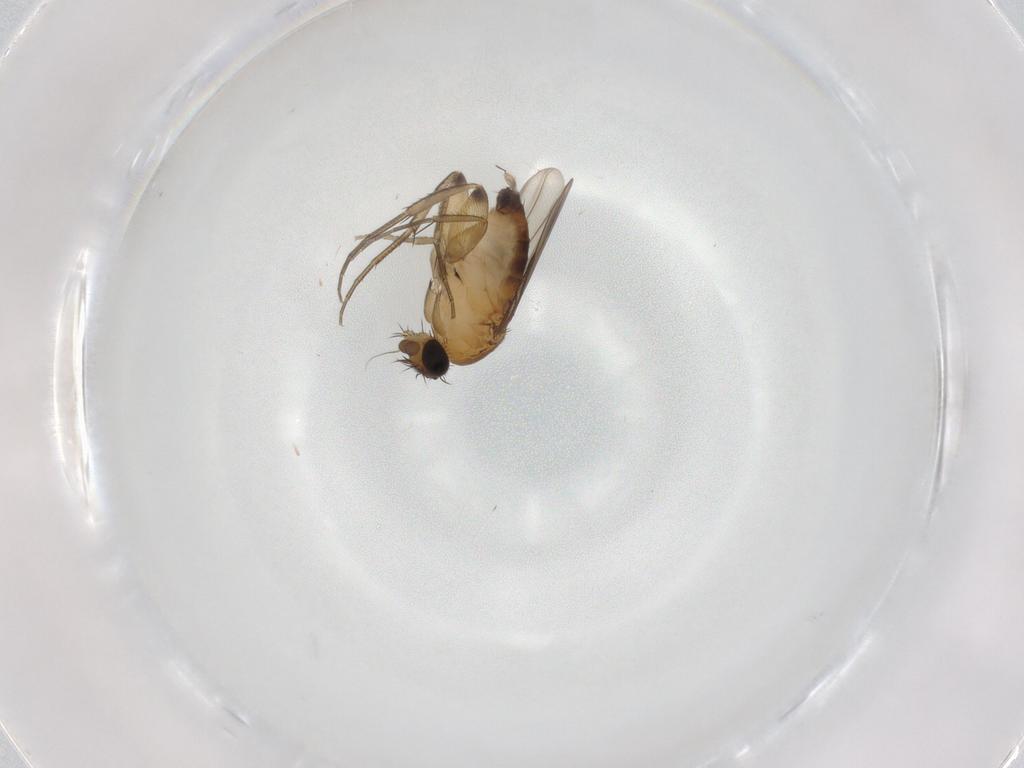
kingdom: Animalia
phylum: Arthropoda
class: Insecta
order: Diptera
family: Phoridae
